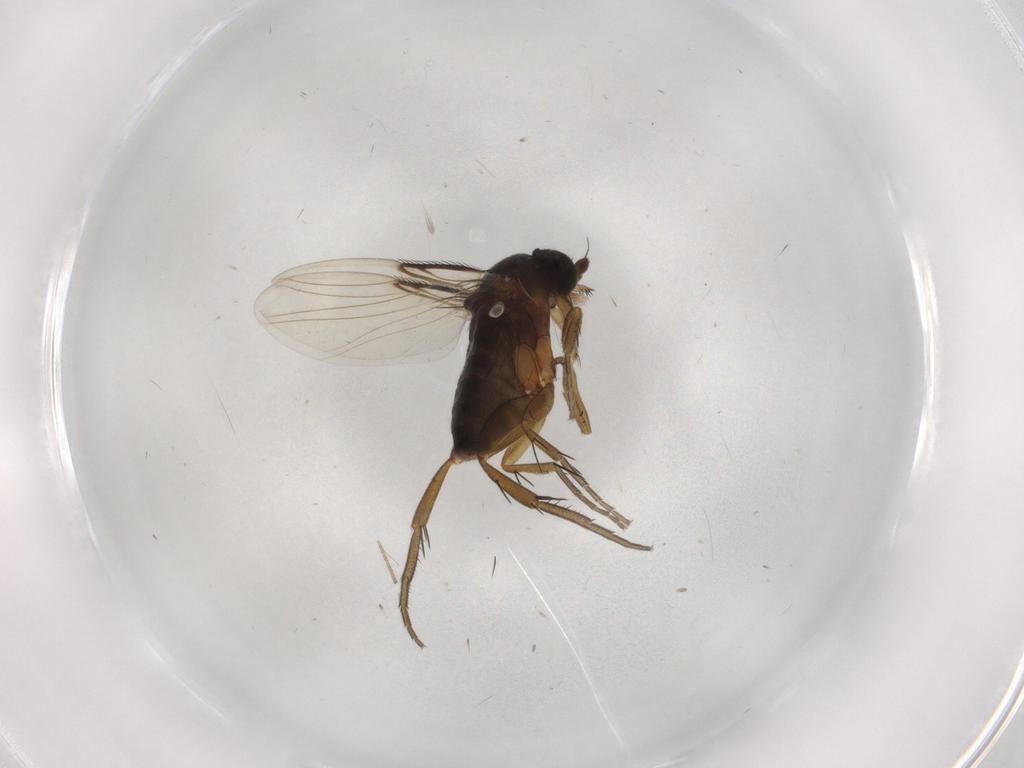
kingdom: Animalia
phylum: Arthropoda
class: Insecta
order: Diptera
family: Phoridae
